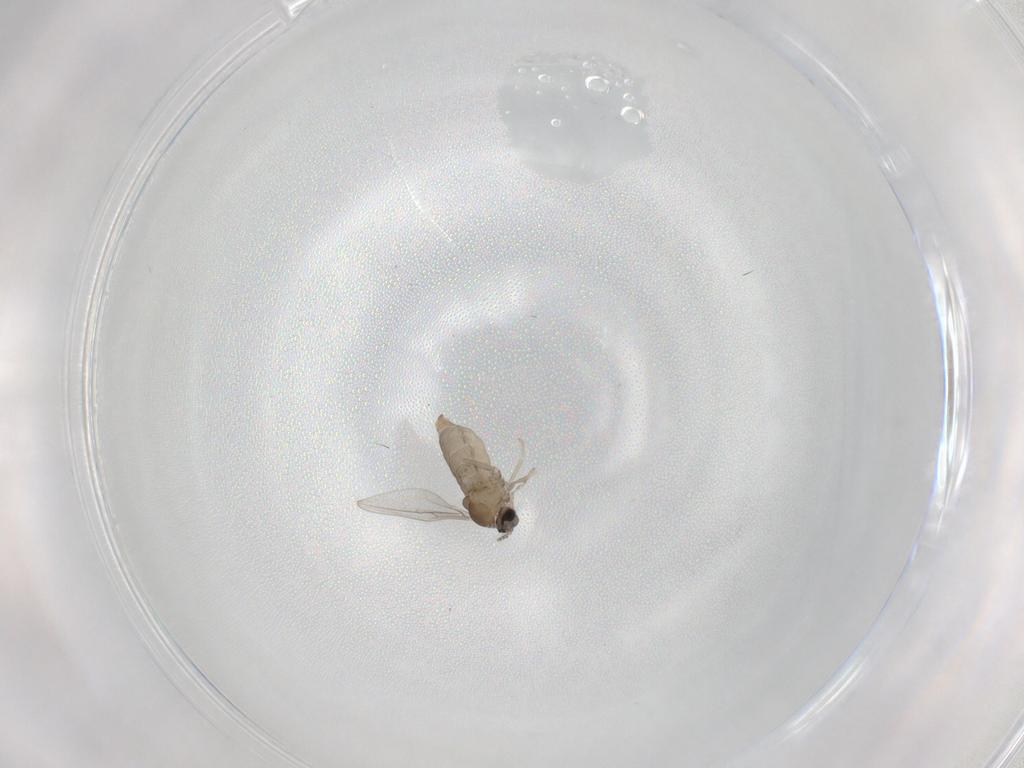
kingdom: Animalia
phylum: Arthropoda
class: Insecta
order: Diptera
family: Cecidomyiidae
